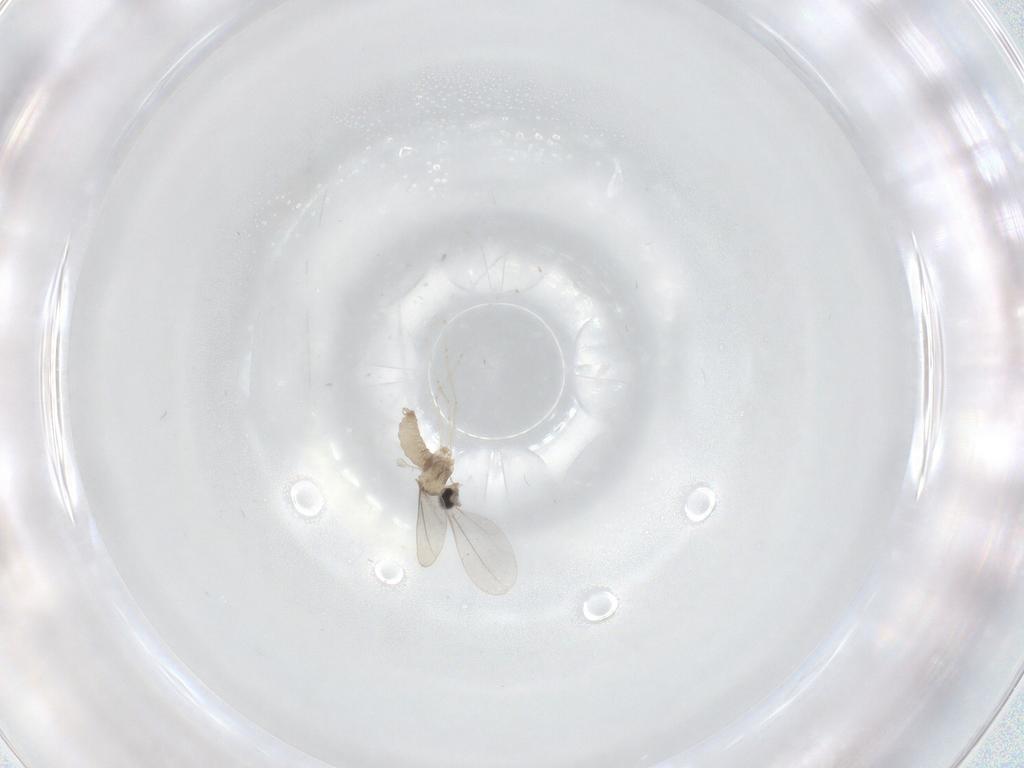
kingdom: Animalia
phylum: Arthropoda
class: Insecta
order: Diptera
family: Cecidomyiidae
